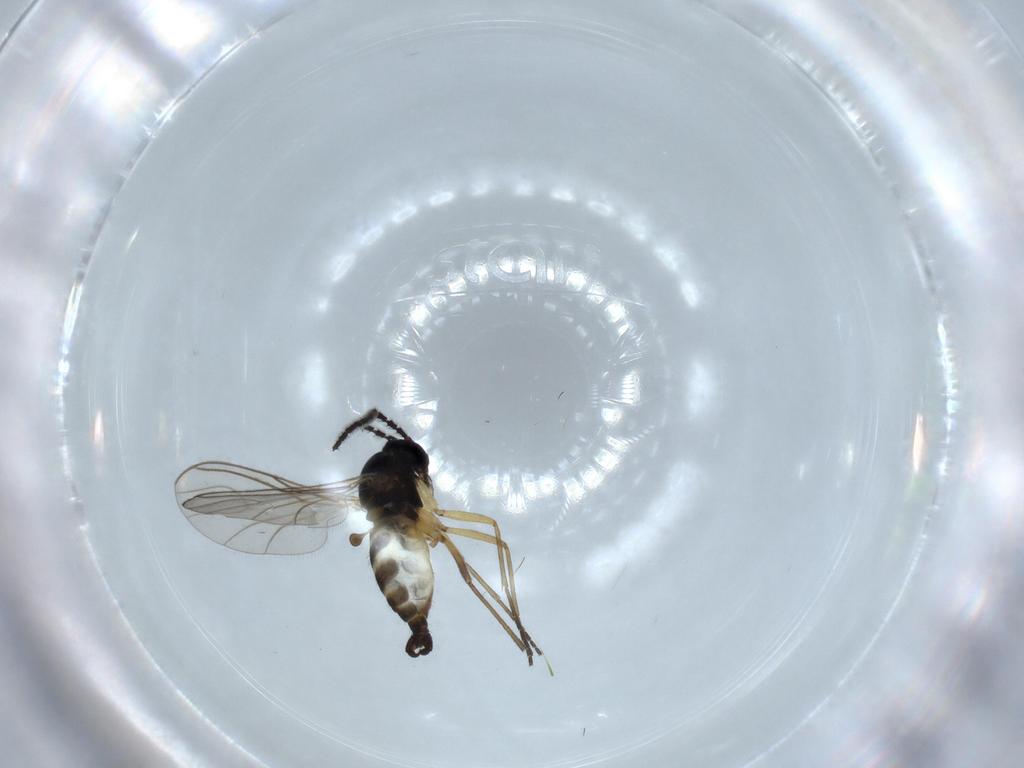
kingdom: Animalia
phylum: Arthropoda
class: Insecta
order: Diptera
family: Sciaridae
